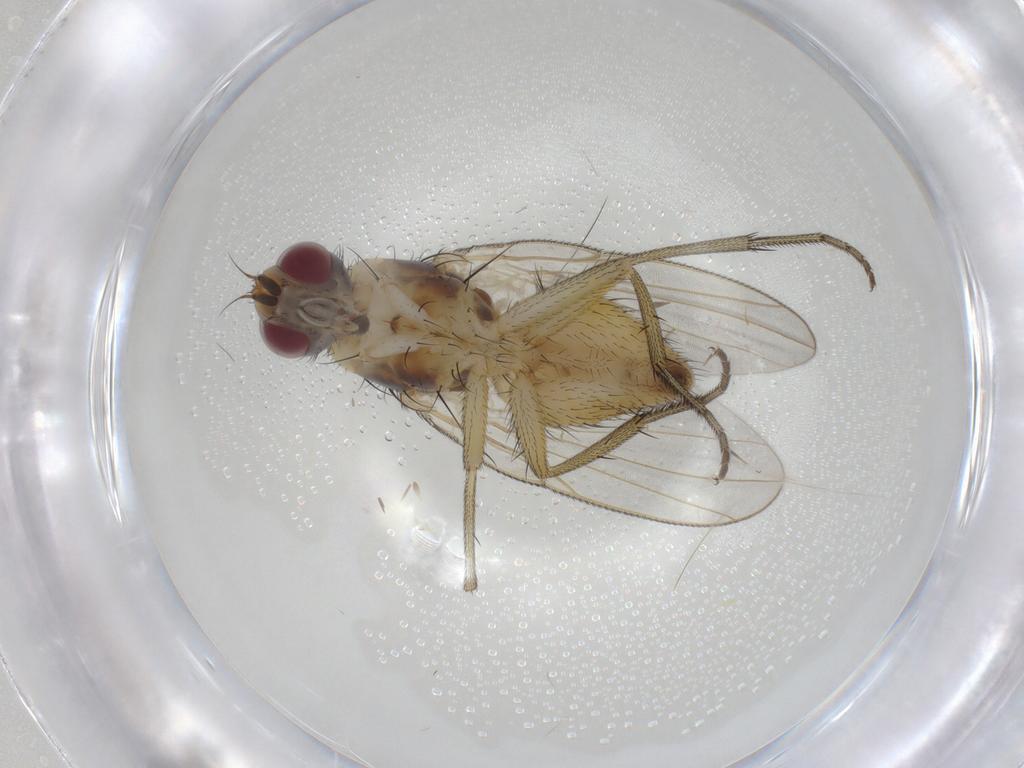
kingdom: Animalia
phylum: Arthropoda
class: Insecta
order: Diptera
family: Muscidae
